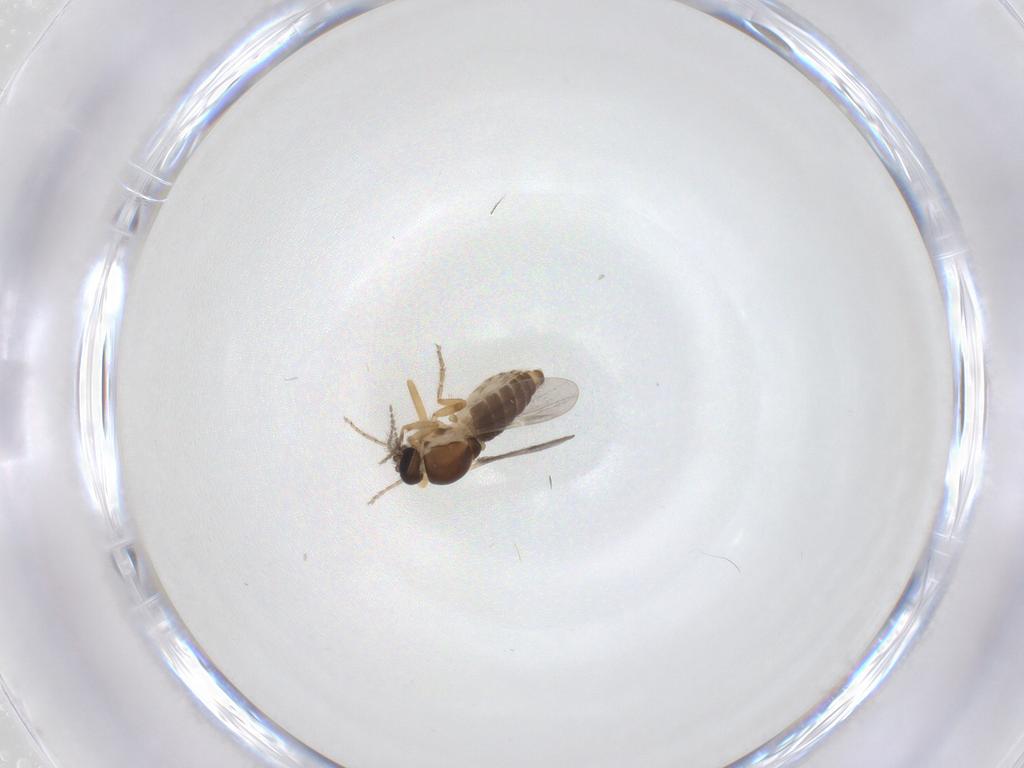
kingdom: Animalia
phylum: Arthropoda
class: Insecta
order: Diptera
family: Ceratopogonidae
